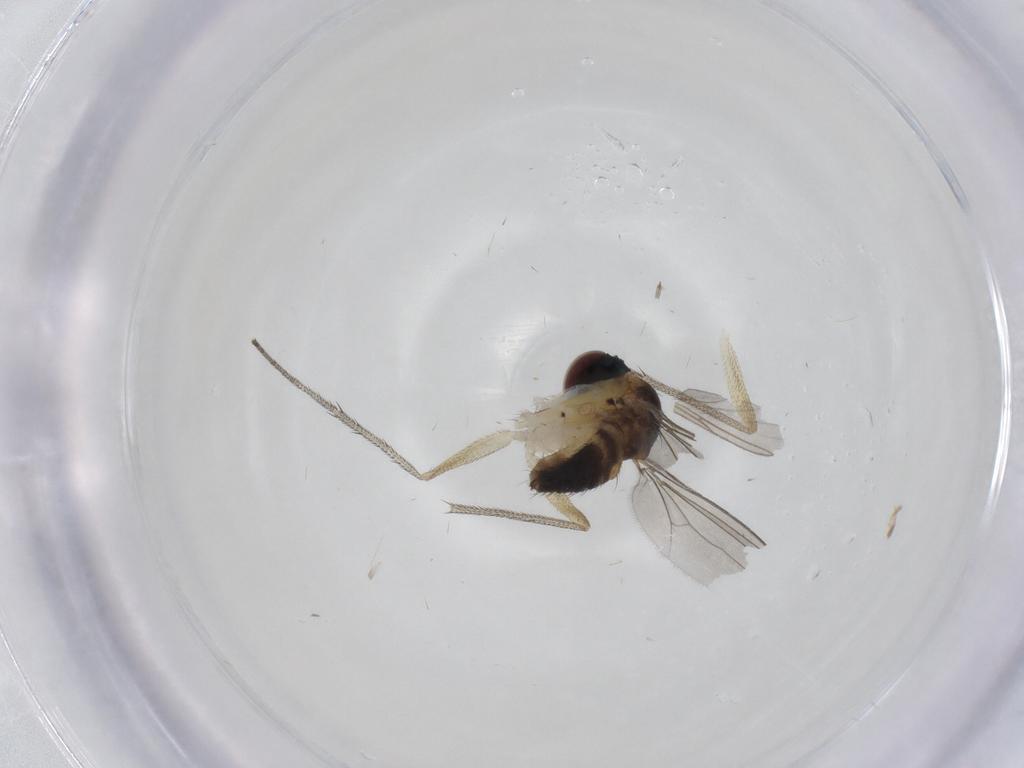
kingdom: Animalia
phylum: Arthropoda
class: Insecta
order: Diptera
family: Dolichopodidae
